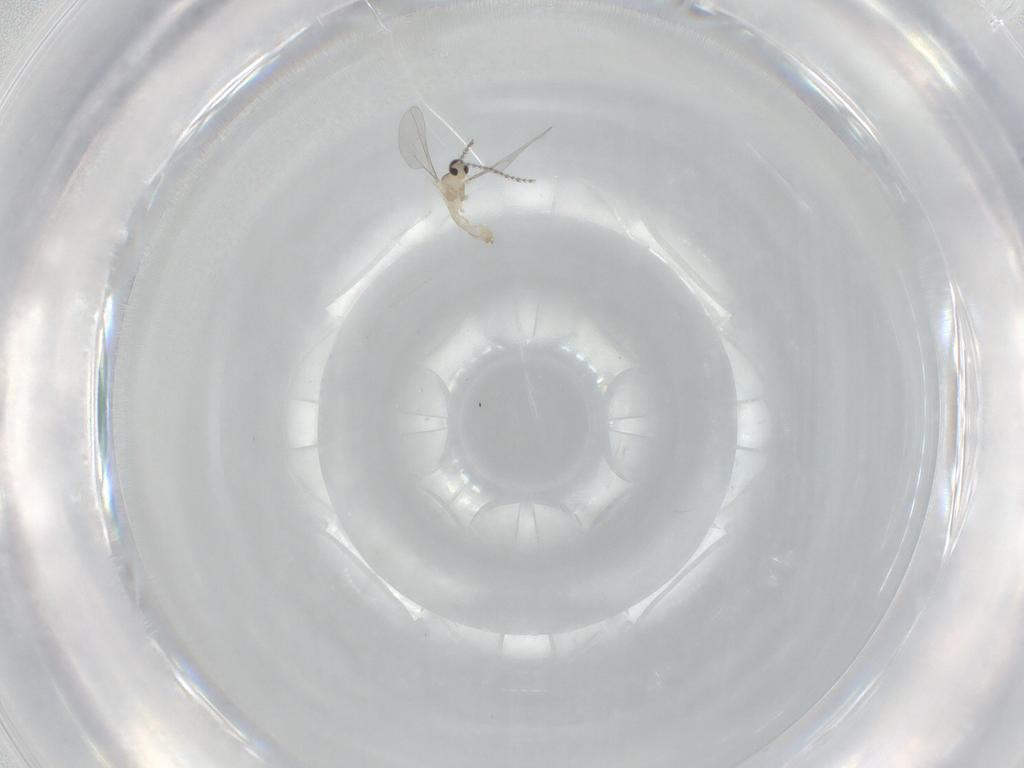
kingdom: Animalia
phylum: Arthropoda
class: Insecta
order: Diptera
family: Cecidomyiidae
